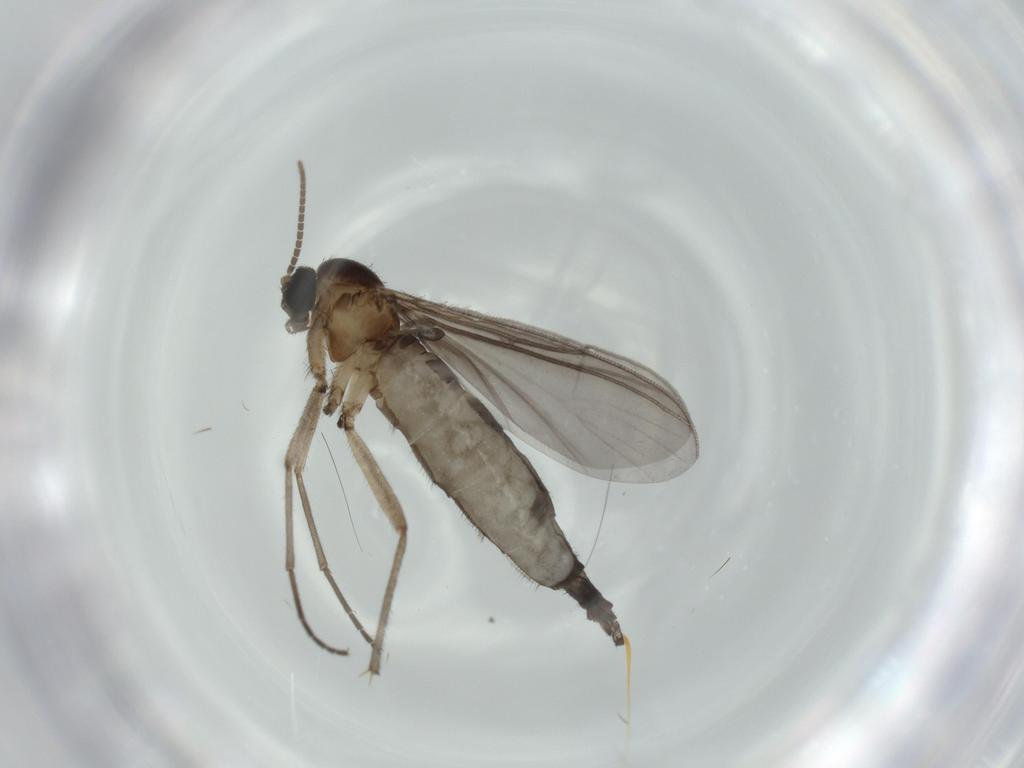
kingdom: Animalia
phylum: Arthropoda
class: Insecta
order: Diptera
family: Sciaridae
